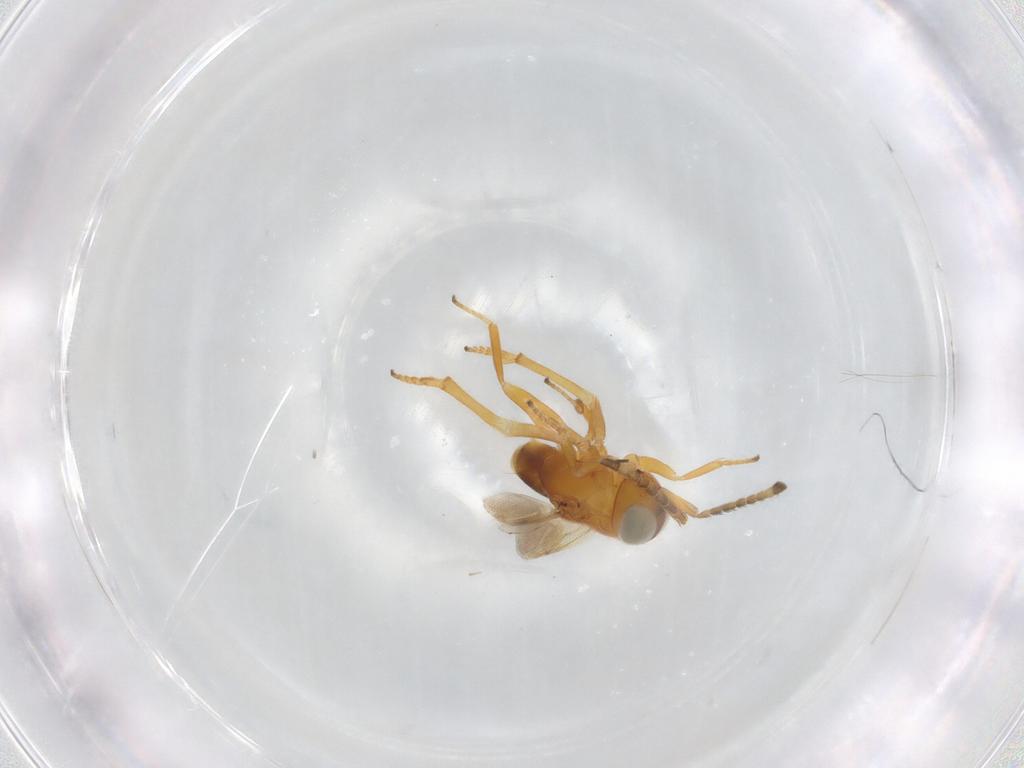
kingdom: Animalia
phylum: Arthropoda
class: Insecta
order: Hymenoptera
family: Encyrtidae
